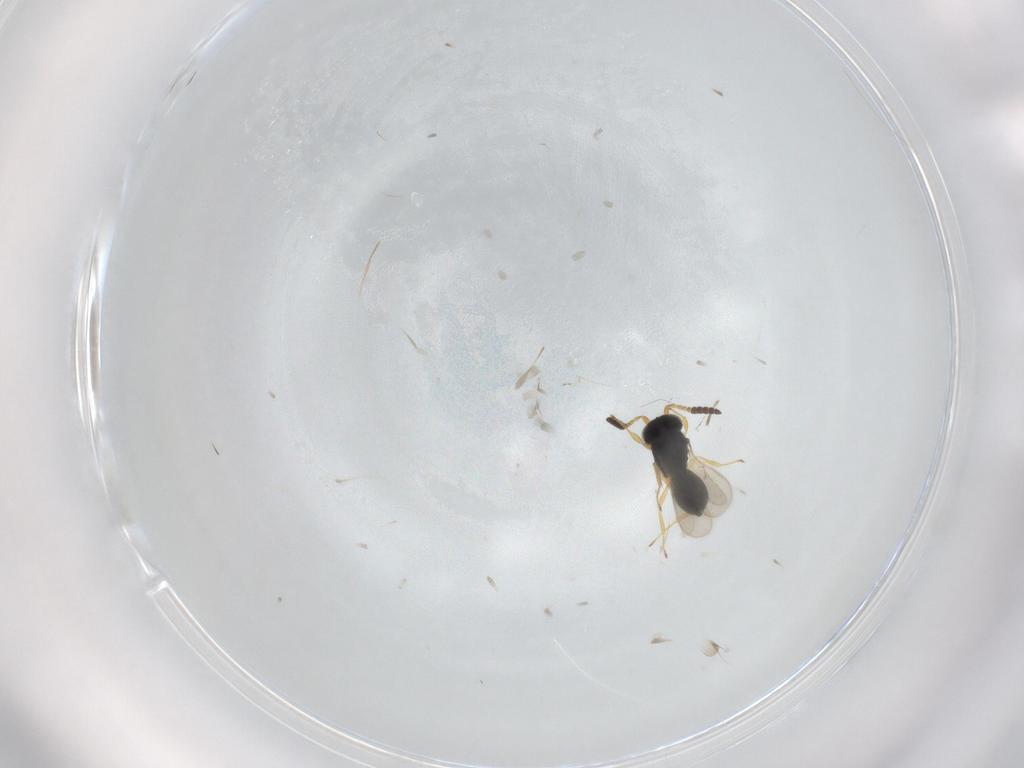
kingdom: Animalia
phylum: Arthropoda
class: Insecta
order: Hymenoptera
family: Scelionidae
